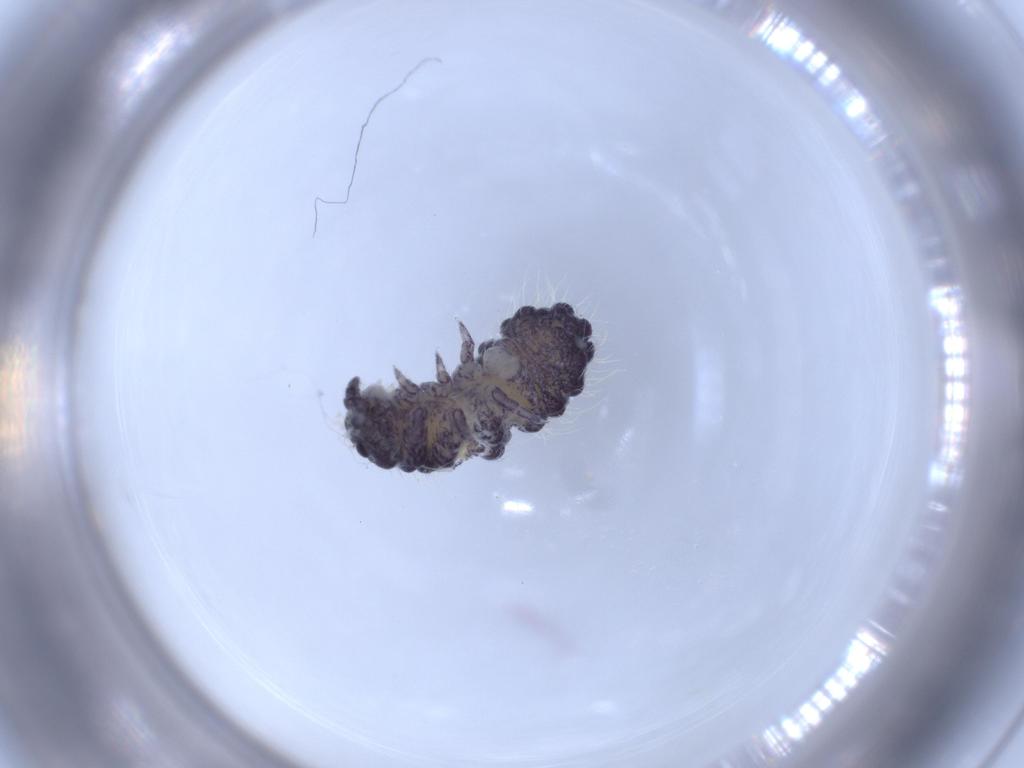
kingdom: Animalia
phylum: Arthropoda
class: Collembola
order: Poduromorpha
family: Neanuridae
